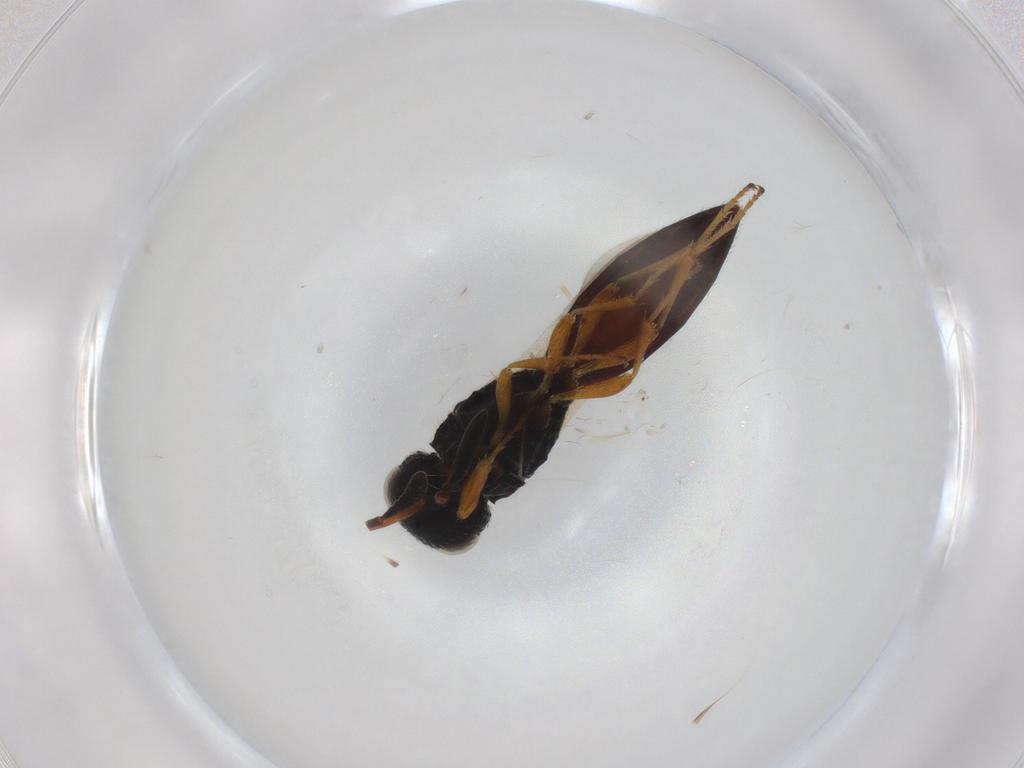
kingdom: Animalia
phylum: Arthropoda
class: Insecta
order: Hymenoptera
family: Scelionidae
